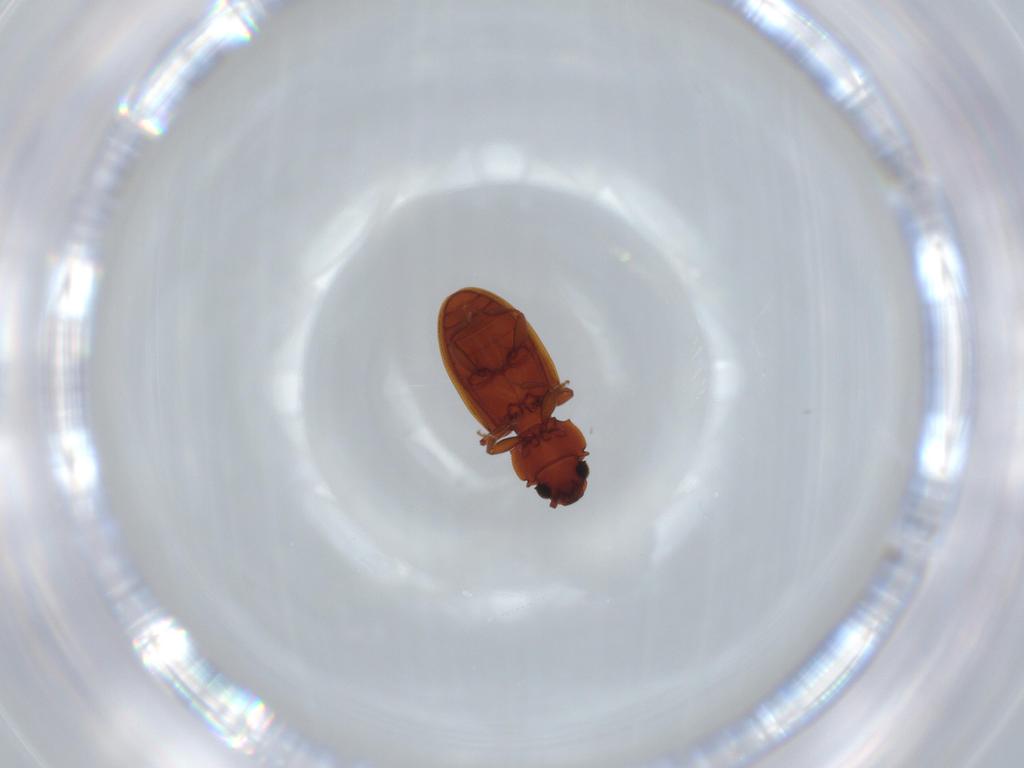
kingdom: Animalia
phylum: Arthropoda
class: Insecta
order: Coleoptera
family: Silvanidae
